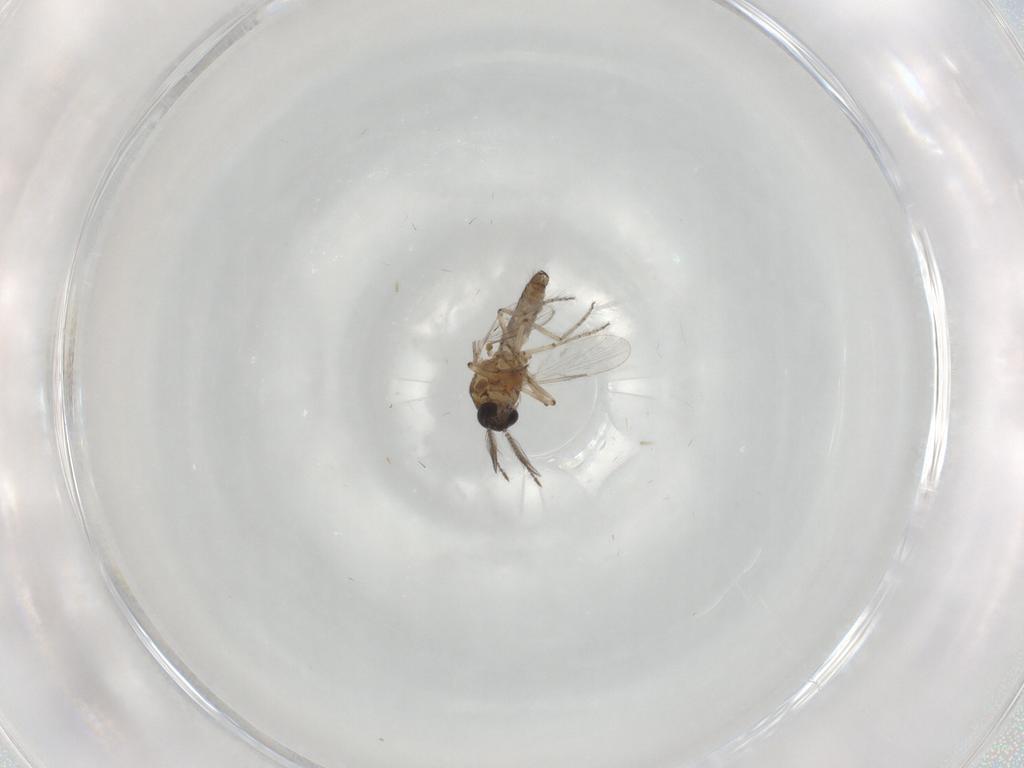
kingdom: Animalia
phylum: Arthropoda
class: Insecta
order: Diptera
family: Ceratopogonidae
